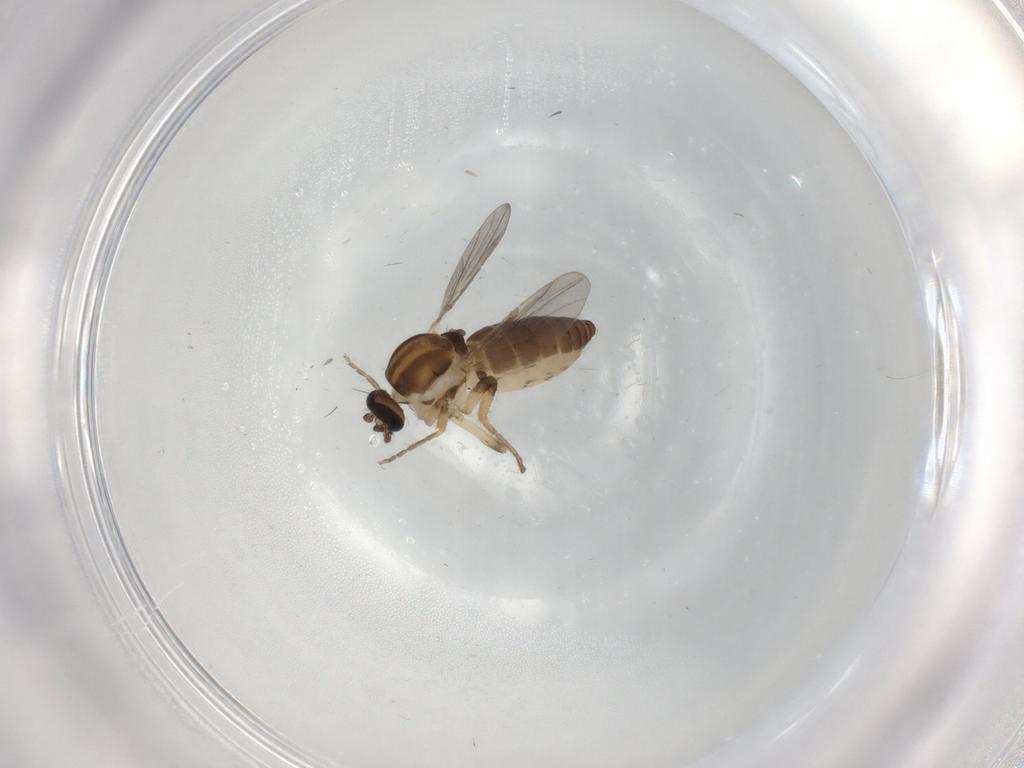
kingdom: Animalia
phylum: Arthropoda
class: Insecta
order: Diptera
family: Ceratopogonidae
